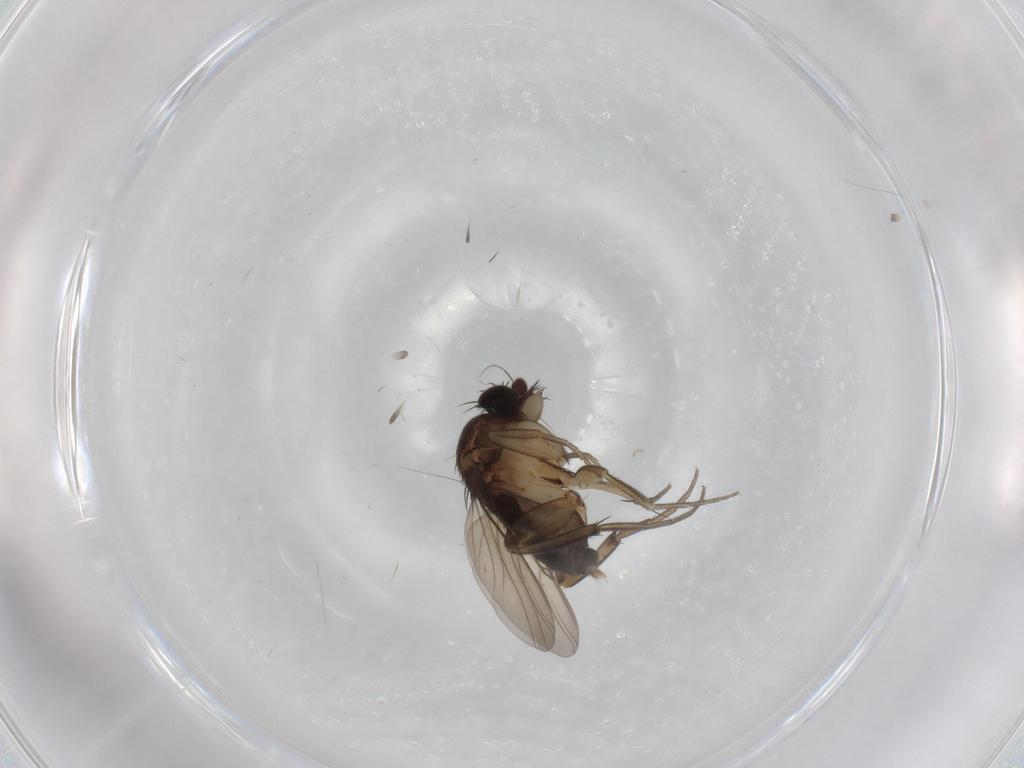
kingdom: Animalia
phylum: Arthropoda
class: Insecta
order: Diptera
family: Phoridae
